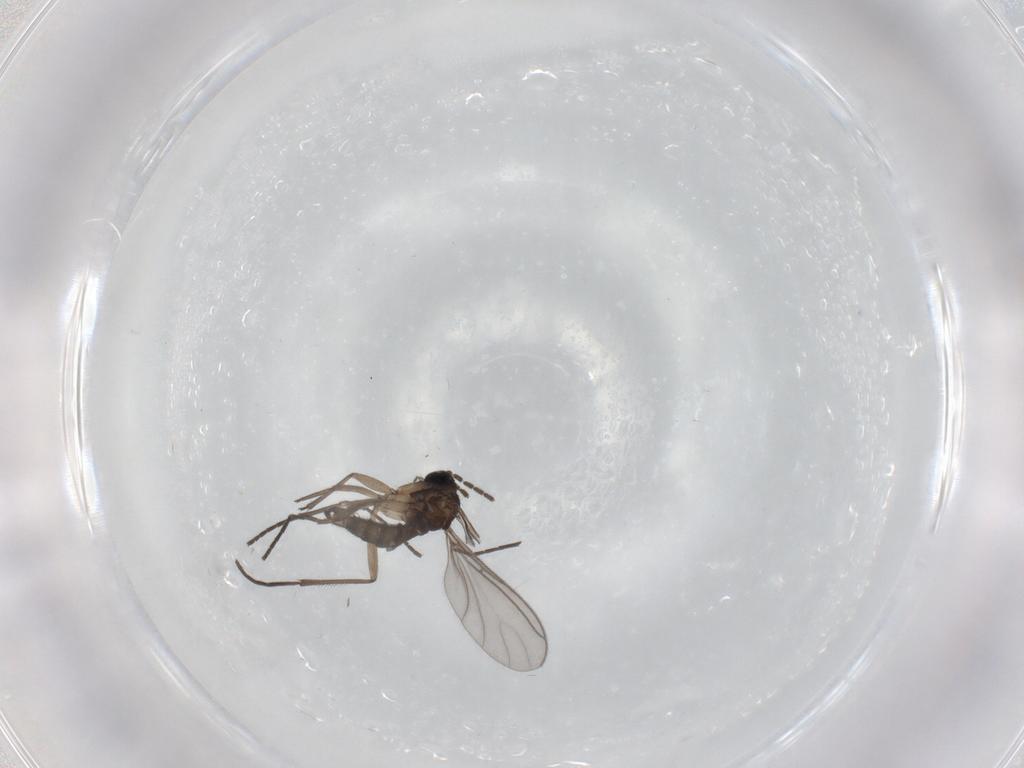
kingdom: Animalia
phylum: Arthropoda
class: Insecta
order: Diptera
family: Sciaridae
